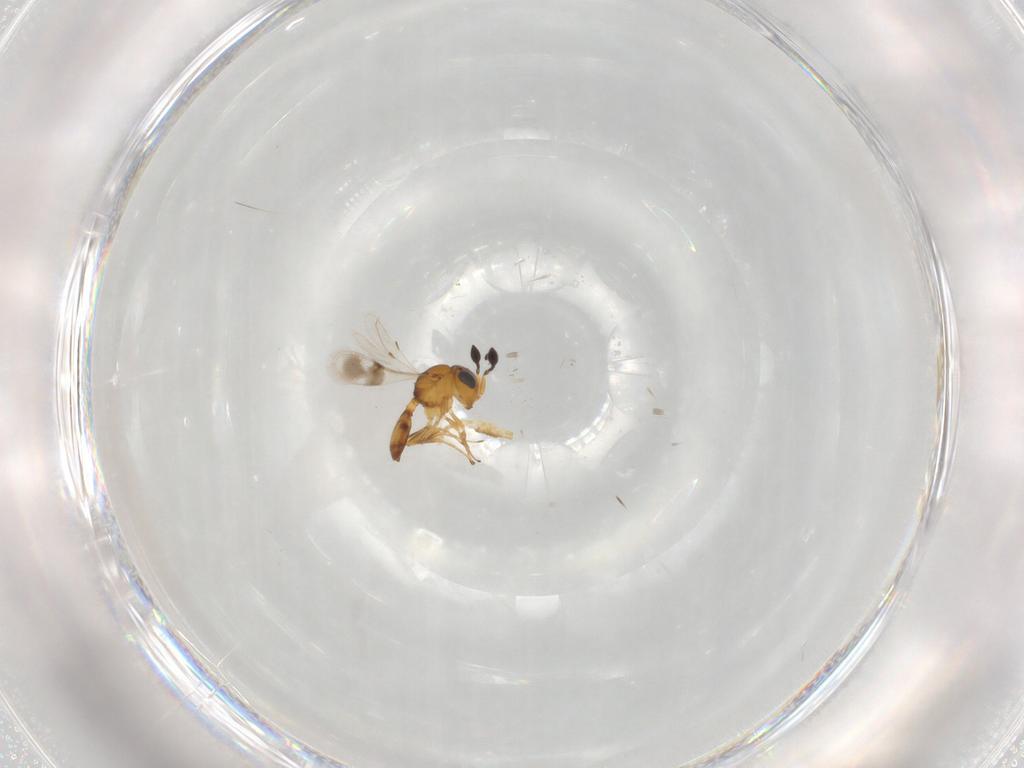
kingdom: Animalia
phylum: Arthropoda
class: Insecta
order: Hymenoptera
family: Scelionidae
